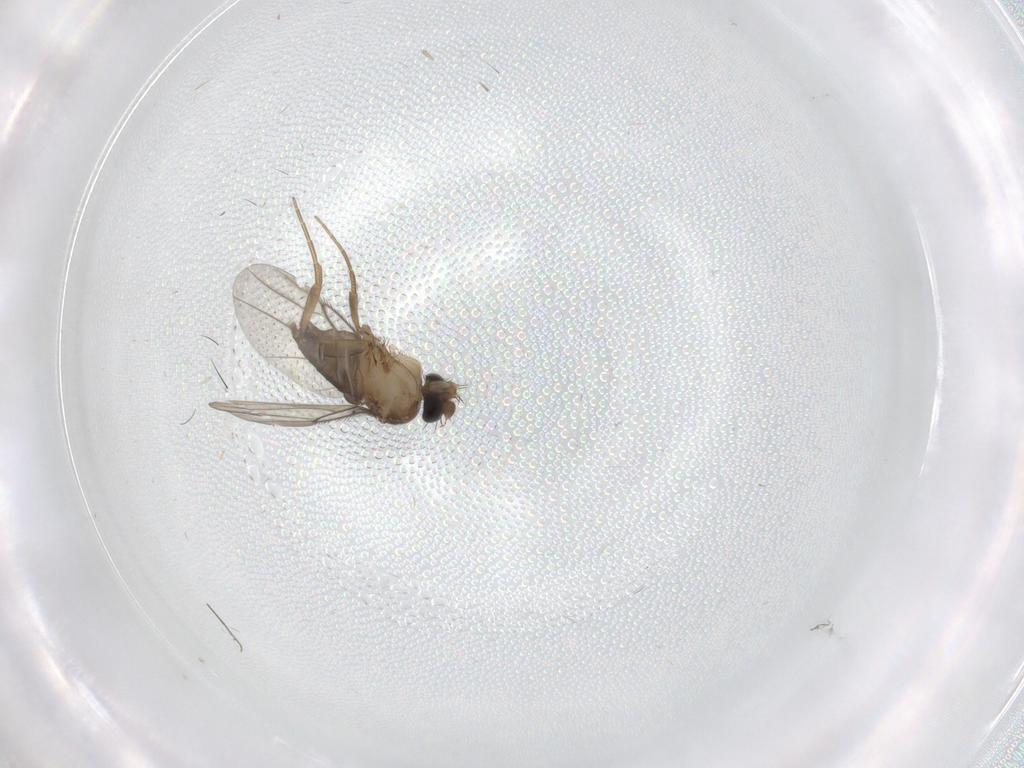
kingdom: Animalia
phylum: Arthropoda
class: Insecta
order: Diptera
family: Phoridae
